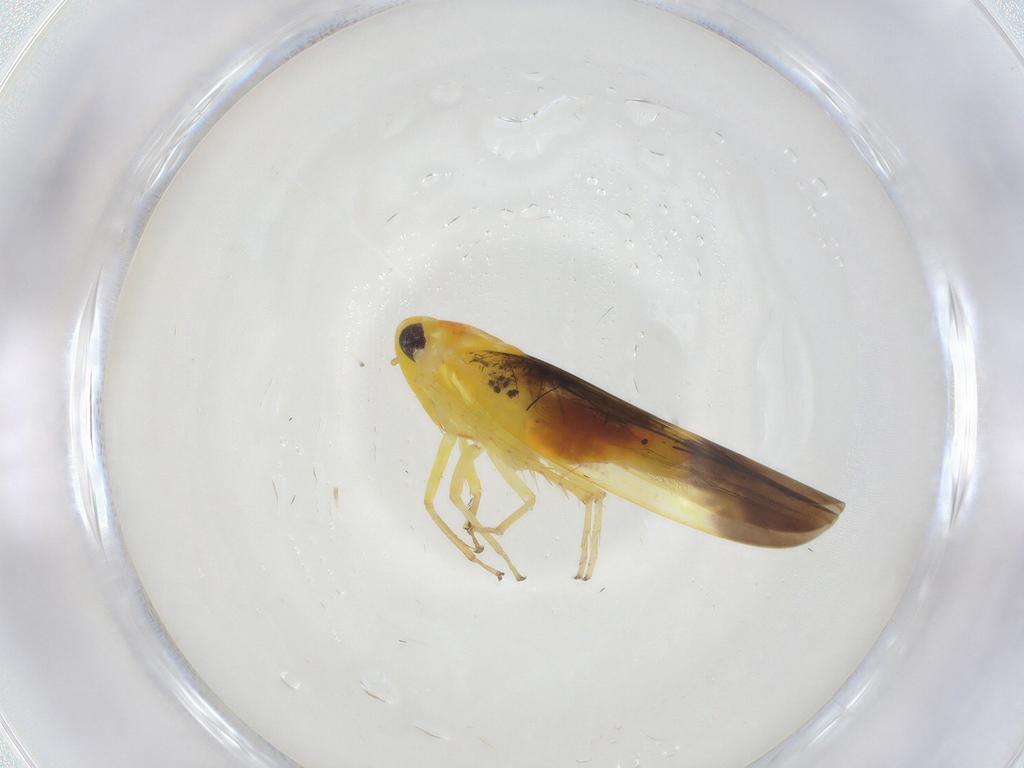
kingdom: Animalia
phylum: Arthropoda
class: Insecta
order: Hemiptera
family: Cicadellidae
